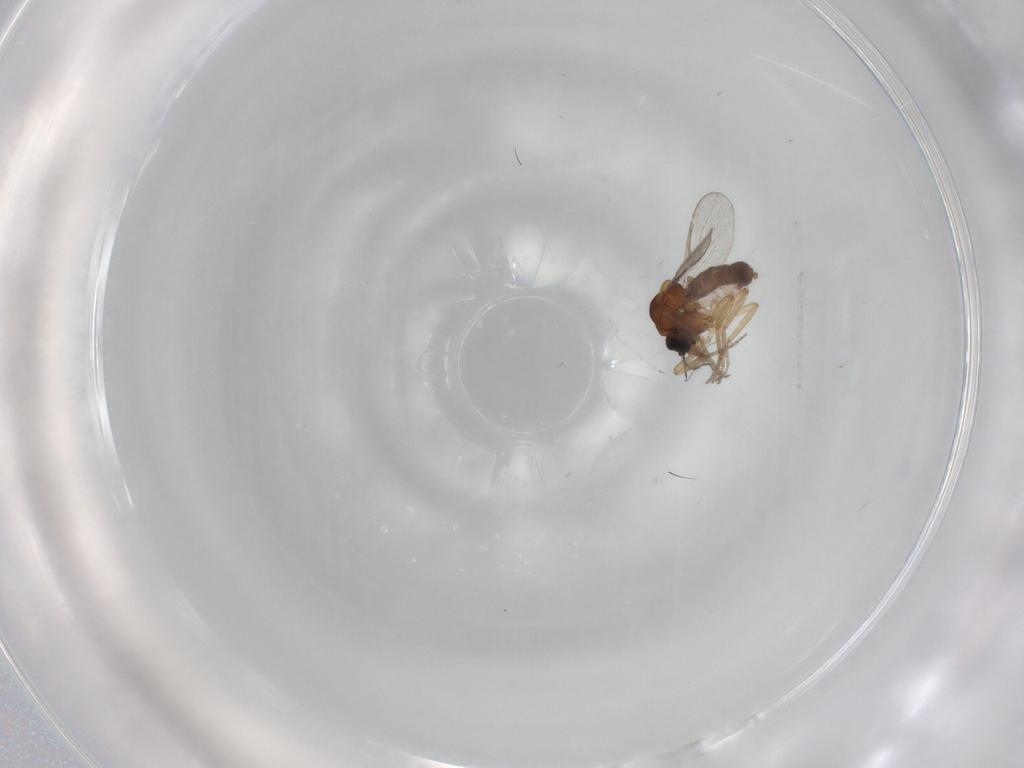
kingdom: Animalia
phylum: Arthropoda
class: Insecta
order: Diptera
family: Ceratopogonidae
